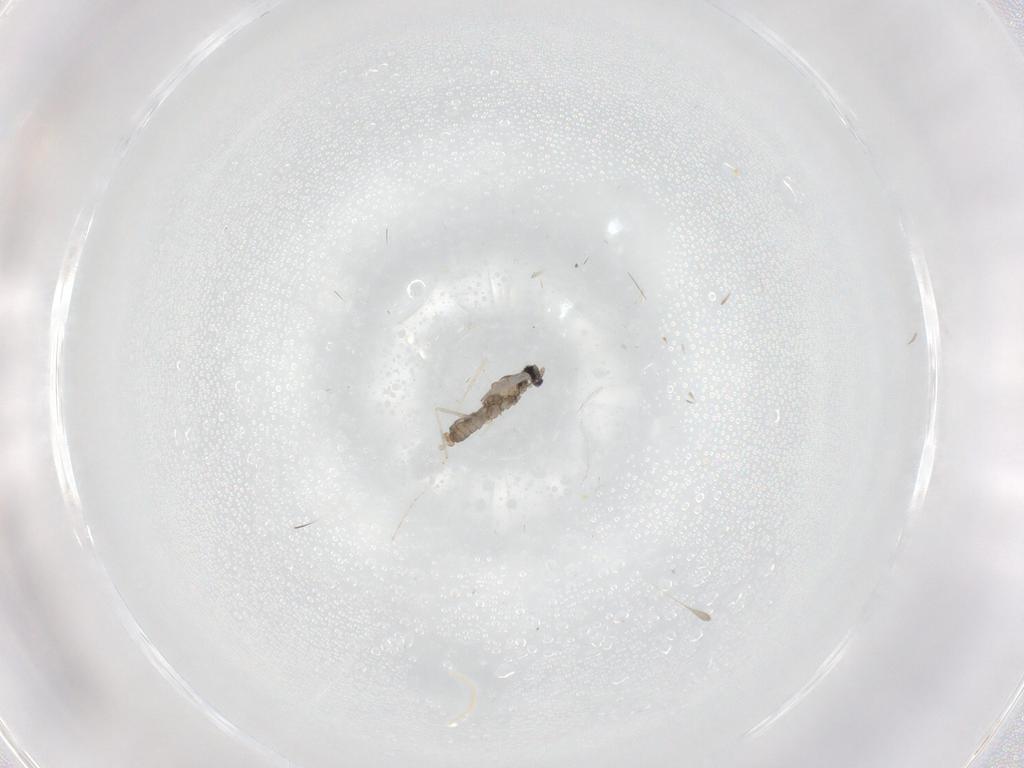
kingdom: Animalia
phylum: Arthropoda
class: Insecta
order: Diptera
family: Cecidomyiidae
